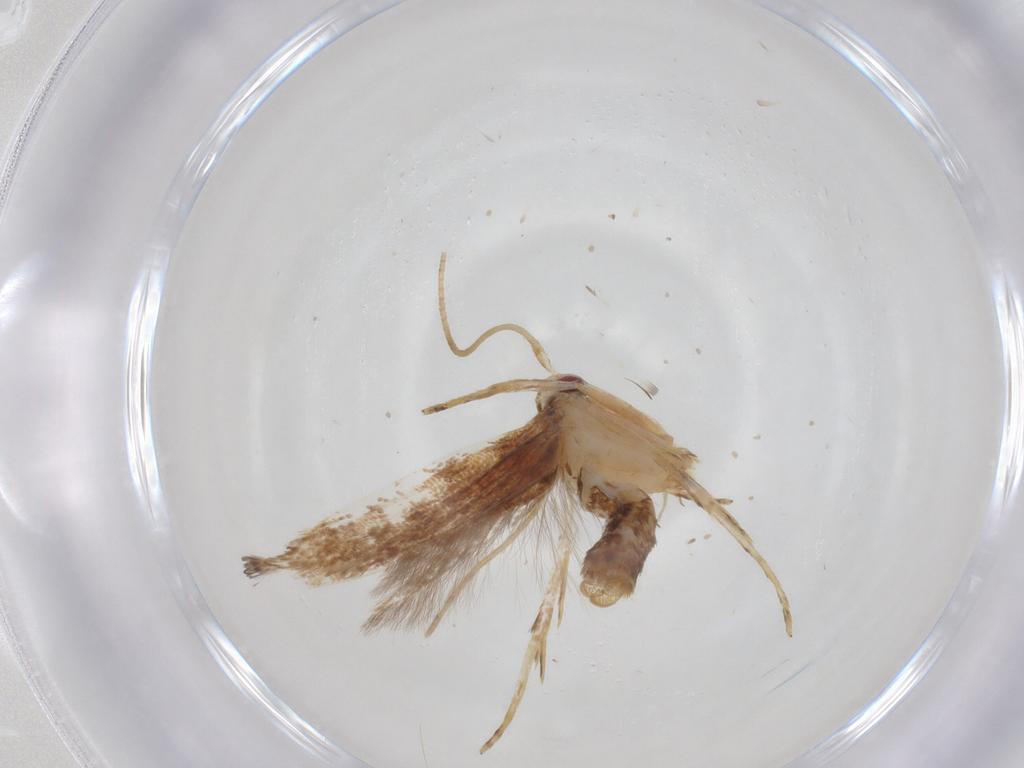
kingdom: Animalia
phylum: Arthropoda
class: Insecta
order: Lepidoptera
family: Cosmopterigidae
